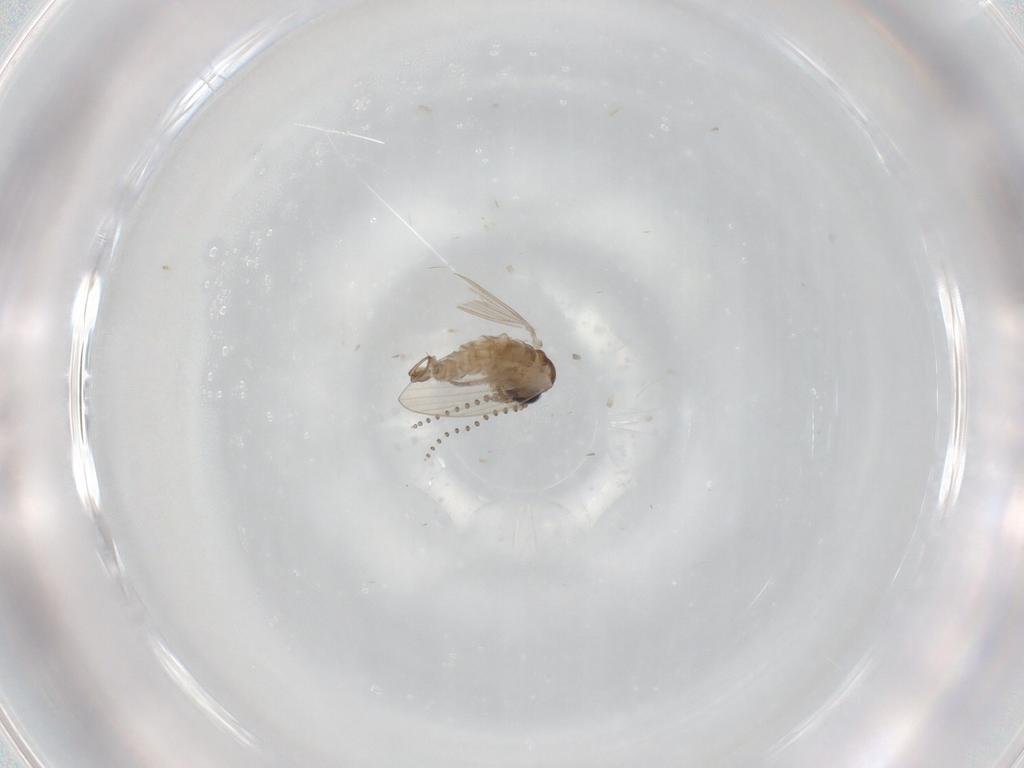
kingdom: Animalia
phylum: Arthropoda
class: Insecta
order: Diptera
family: Psychodidae
